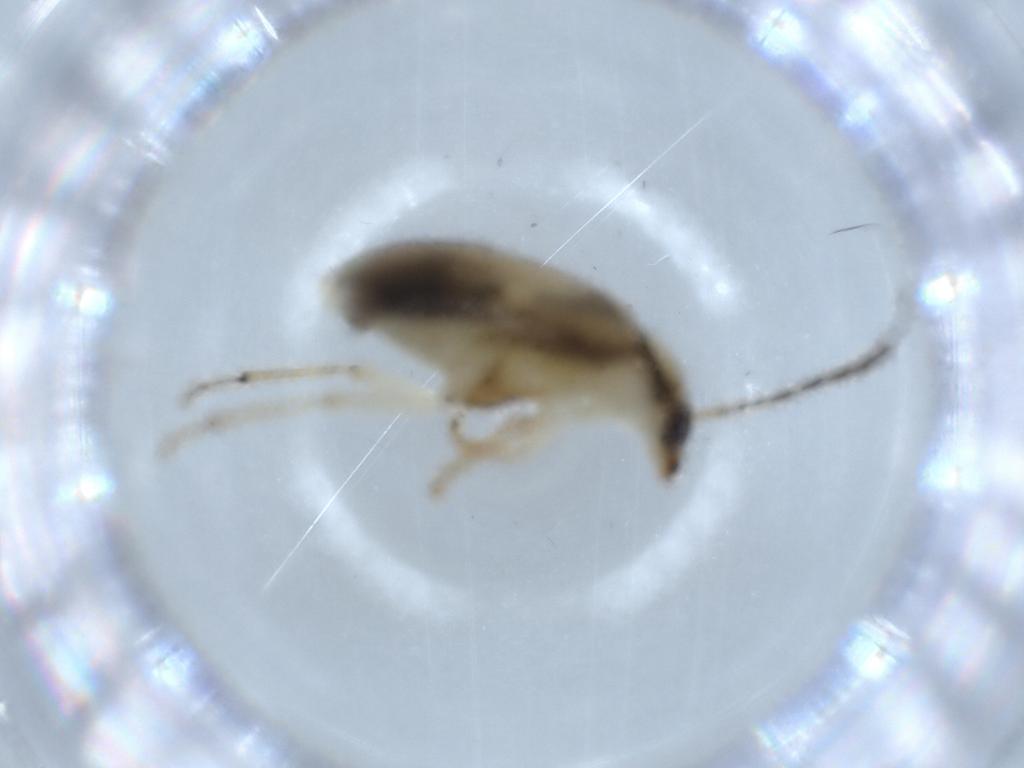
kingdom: Animalia
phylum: Arthropoda
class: Insecta
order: Coleoptera
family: Chrysomelidae
